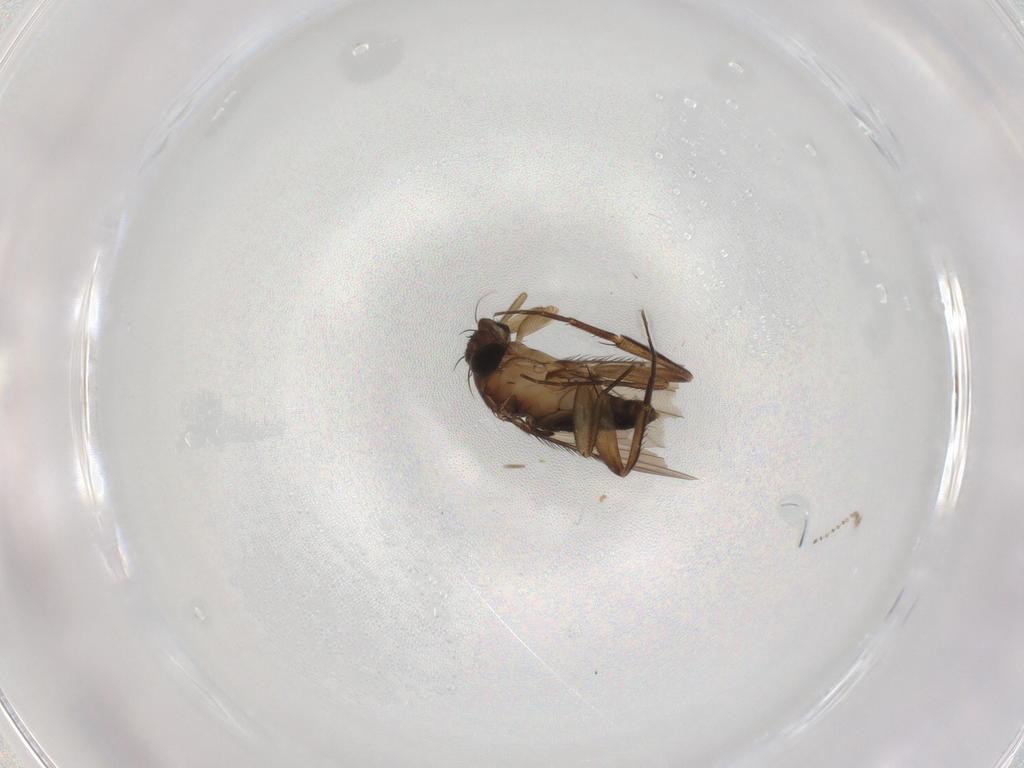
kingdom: Animalia
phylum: Arthropoda
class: Insecta
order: Diptera
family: Phoridae
